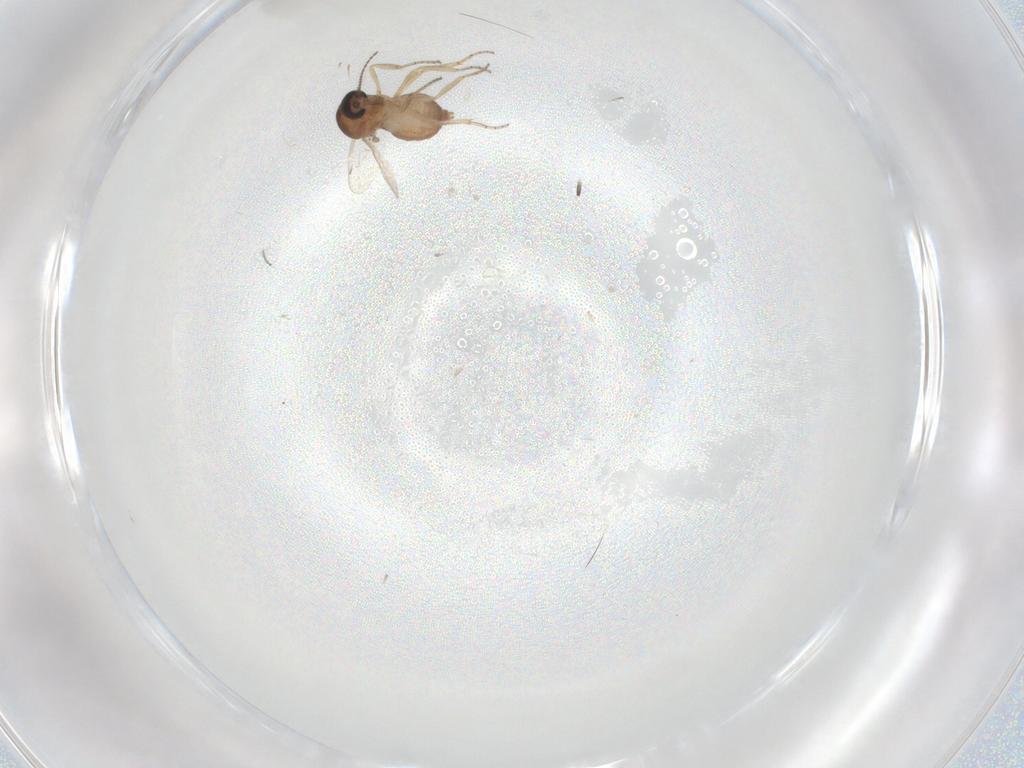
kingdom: Animalia
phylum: Arthropoda
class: Insecta
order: Diptera
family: Ceratopogonidae
